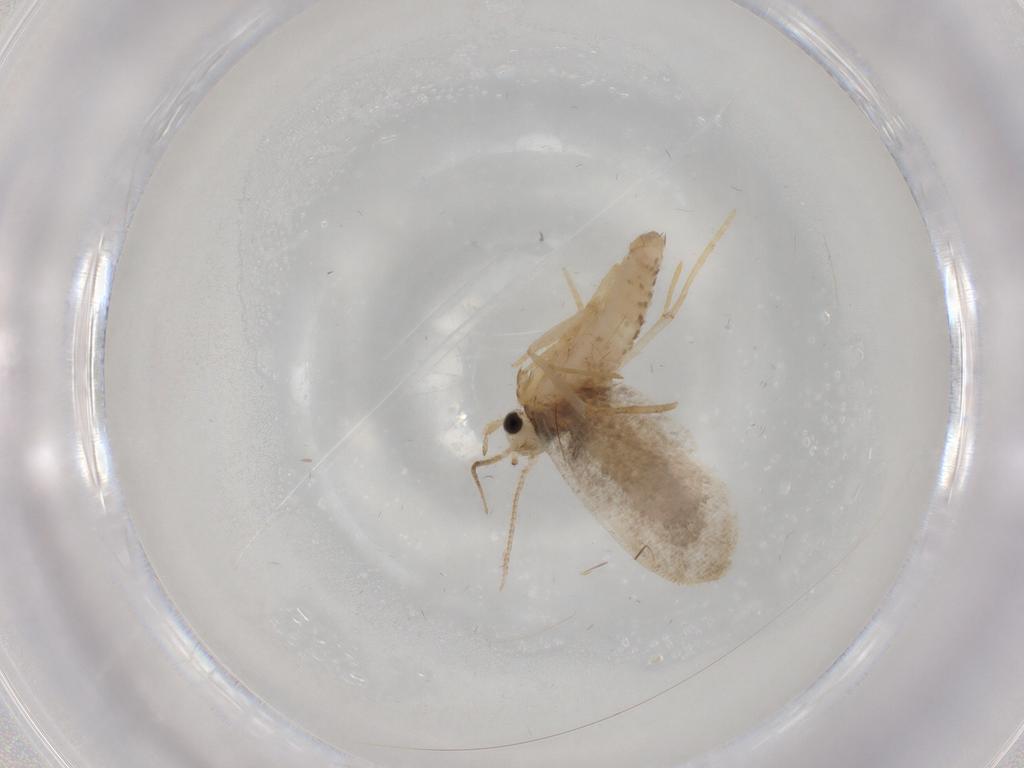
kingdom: Animalia
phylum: Arthropoda
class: Insecta
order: Lepidoptera
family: Psychidae
